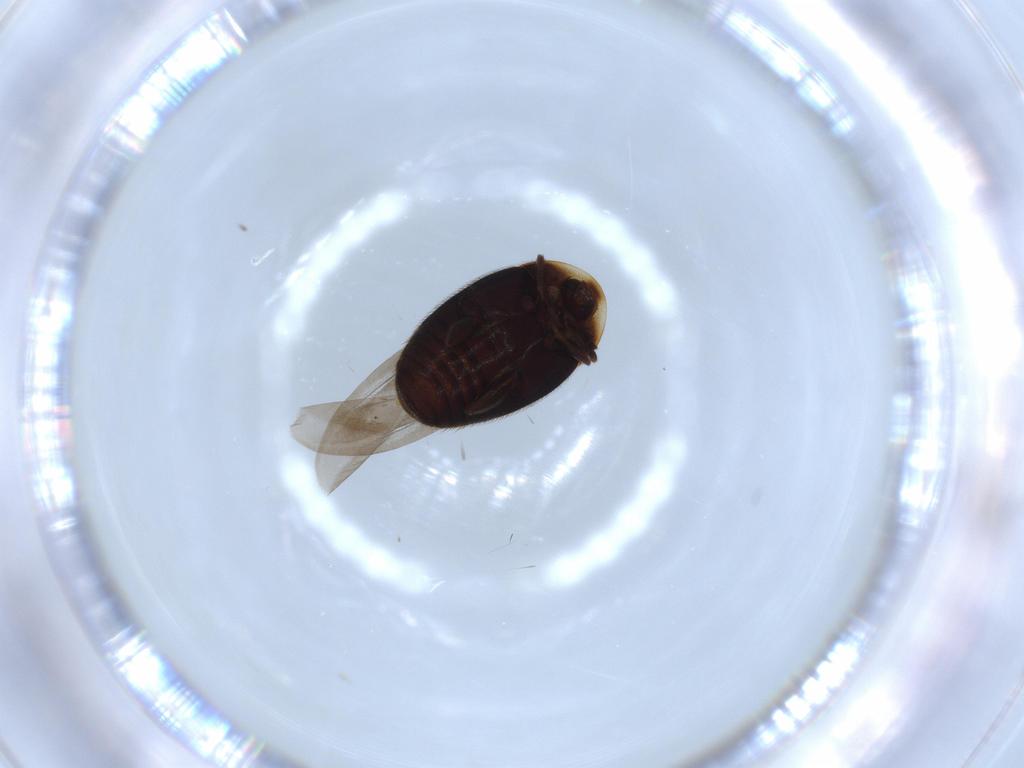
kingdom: Animalia
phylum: Arthropoda
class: Insecta
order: Coleoptera
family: Corylophidae
